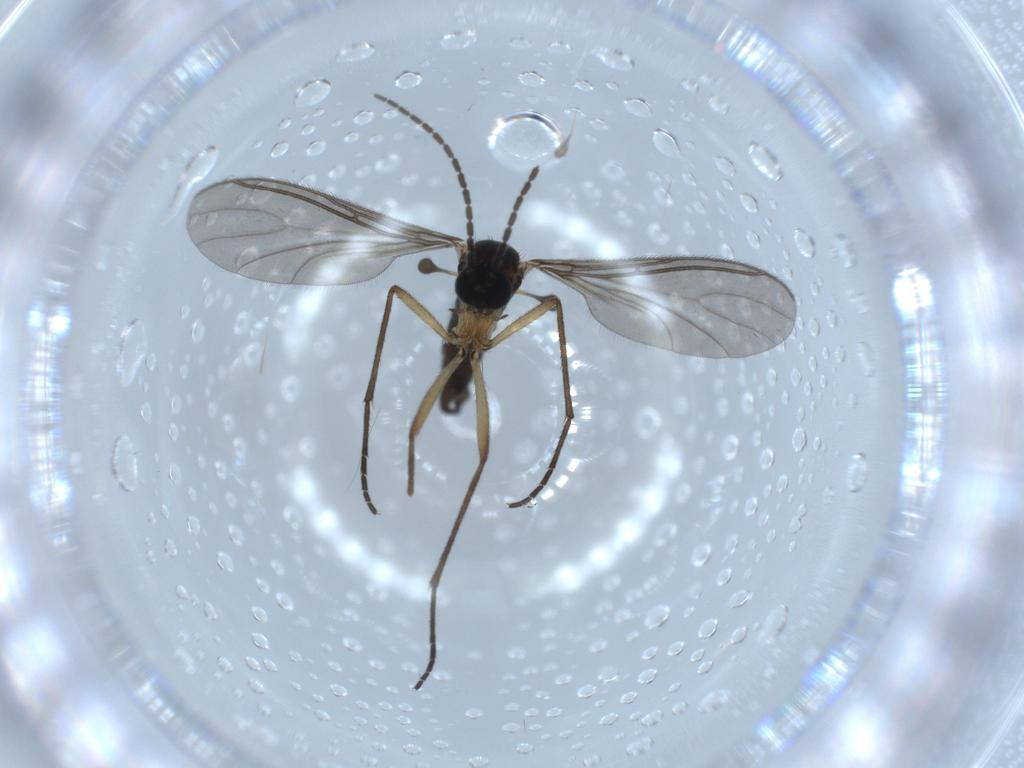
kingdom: Animalia
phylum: Arthropoda
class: Insecta
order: Diptera
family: Sciaridae
